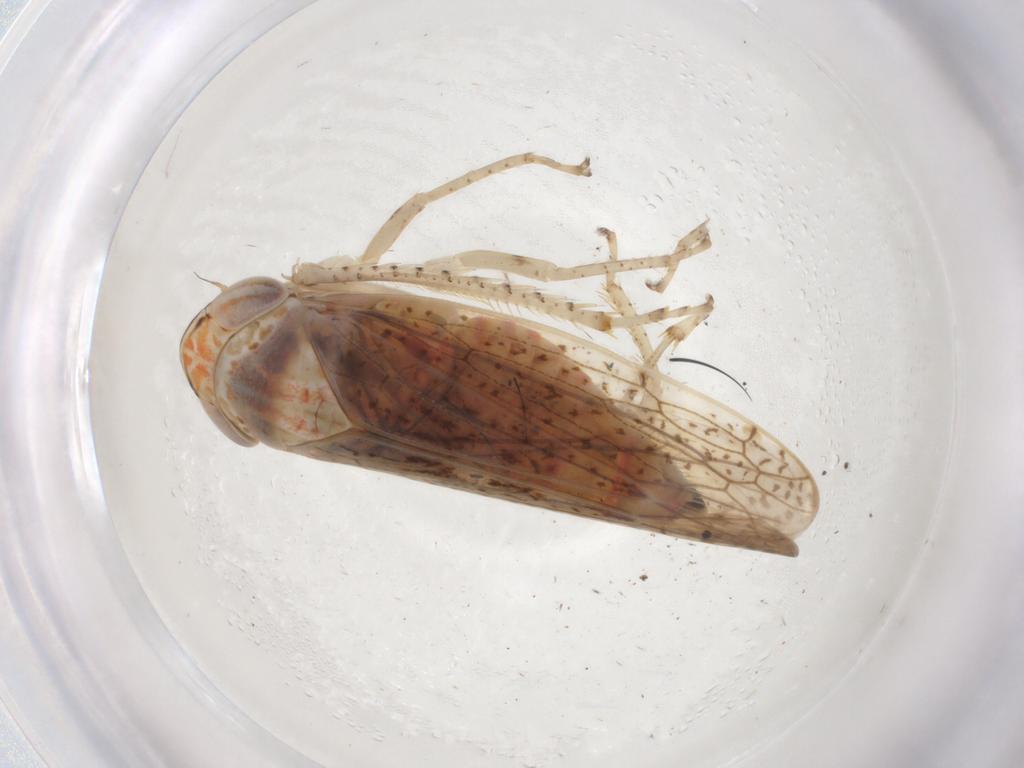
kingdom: Animalia
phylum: Arthropoda
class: Insecta
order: Hemiptera
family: Cicadellidae
